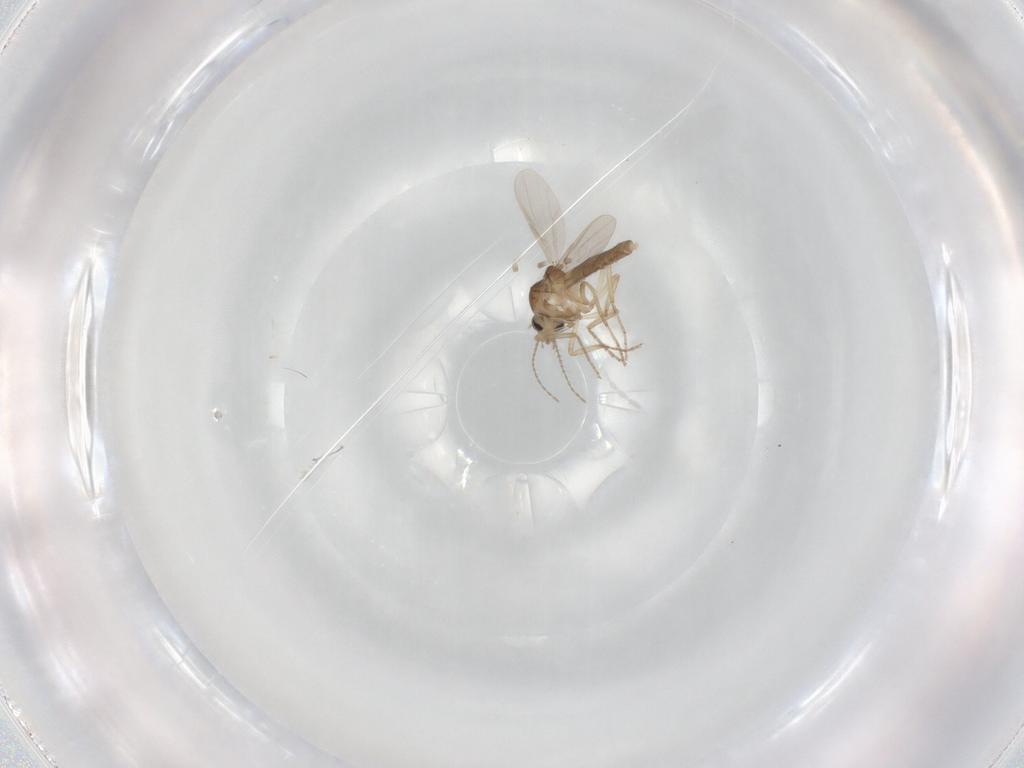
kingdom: Animalia
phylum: Arthropoda
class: Insecta
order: Diptera
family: Ceratopogonidae
